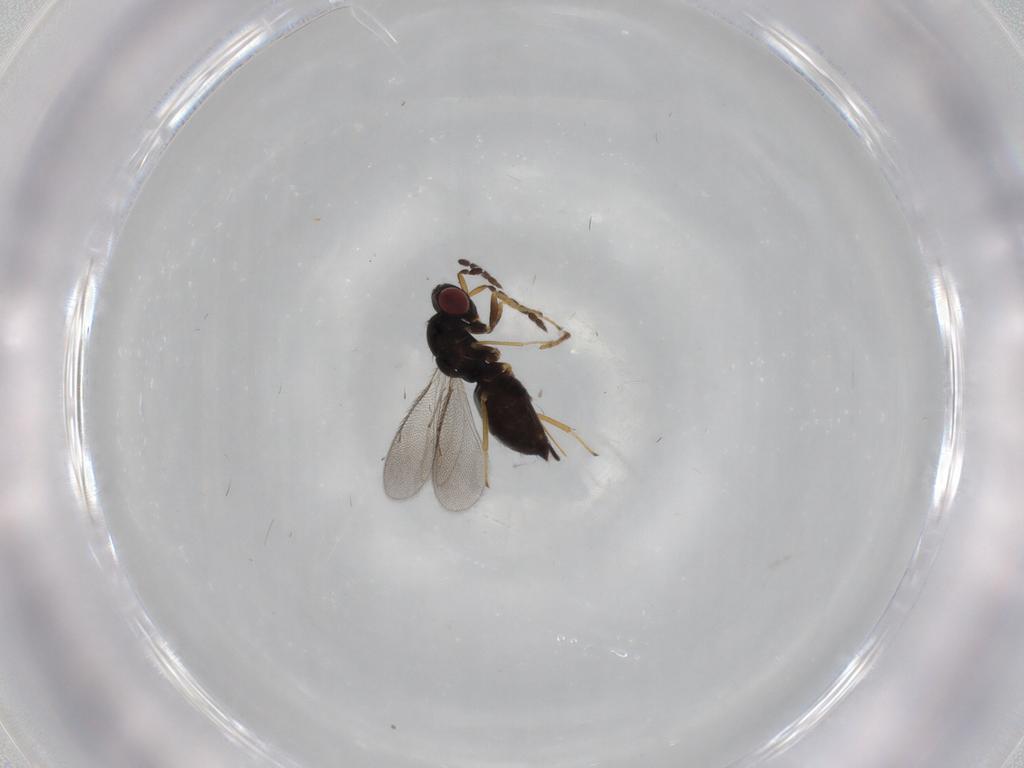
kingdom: Animalia
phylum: Arthropoda
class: Insecta
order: Hymenoptera
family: Eulophidae
